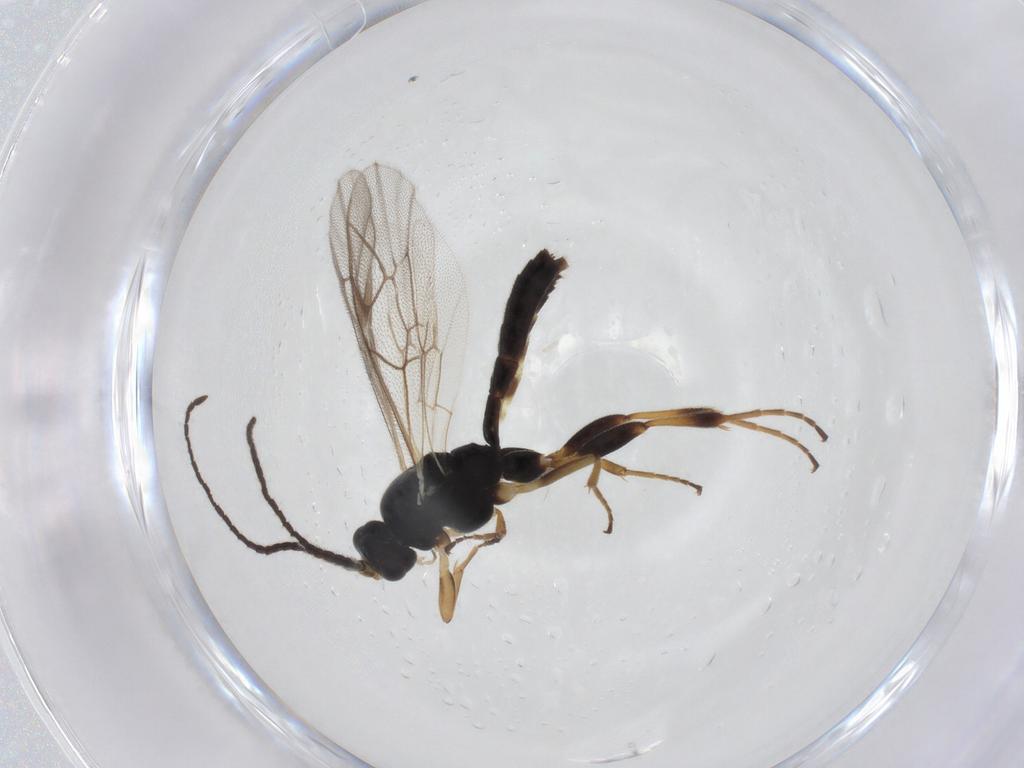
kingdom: Animalia
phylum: Arthropoda
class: Insecta
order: Hymenoptera
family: Ichneumonidae
